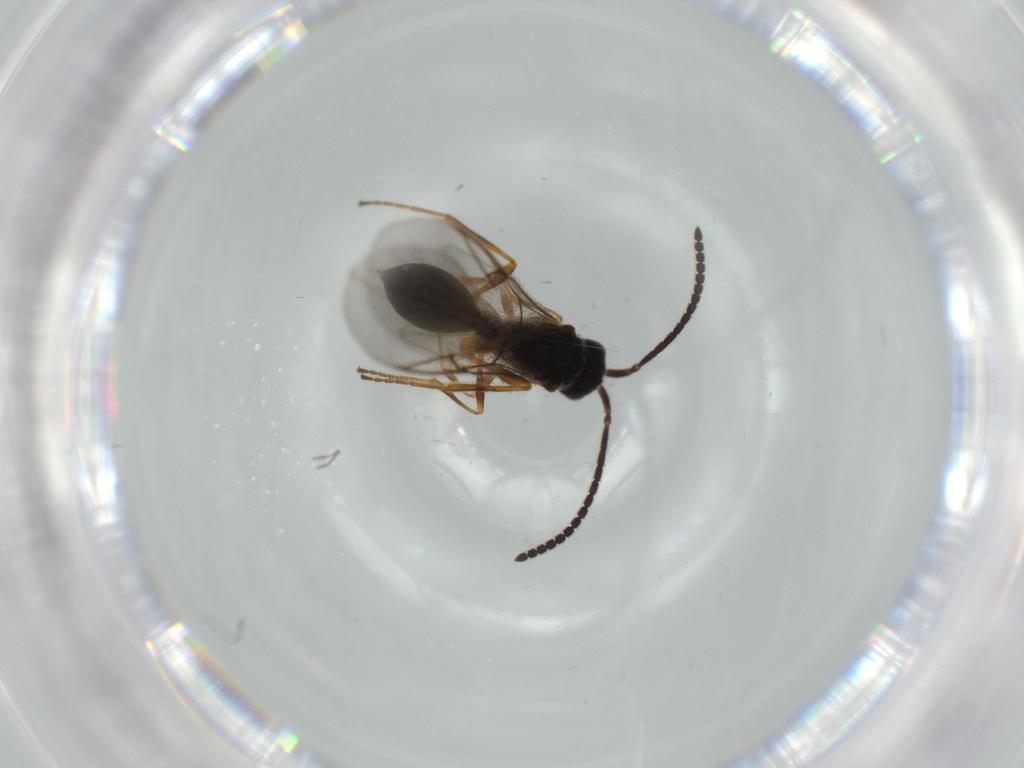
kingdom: Animalia
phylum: Arthropoda
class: Insecta
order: Hymenoptera
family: Diapriidae
